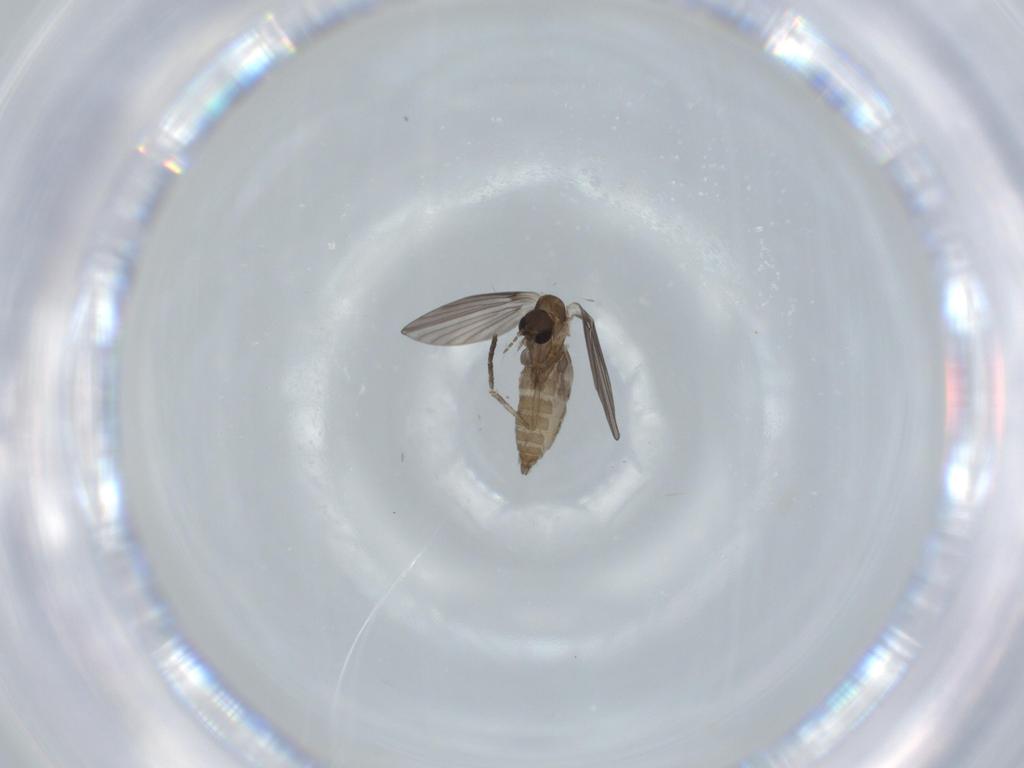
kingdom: Animalia
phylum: Arthropoda
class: Insecta
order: Diptera
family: Psychodidae
